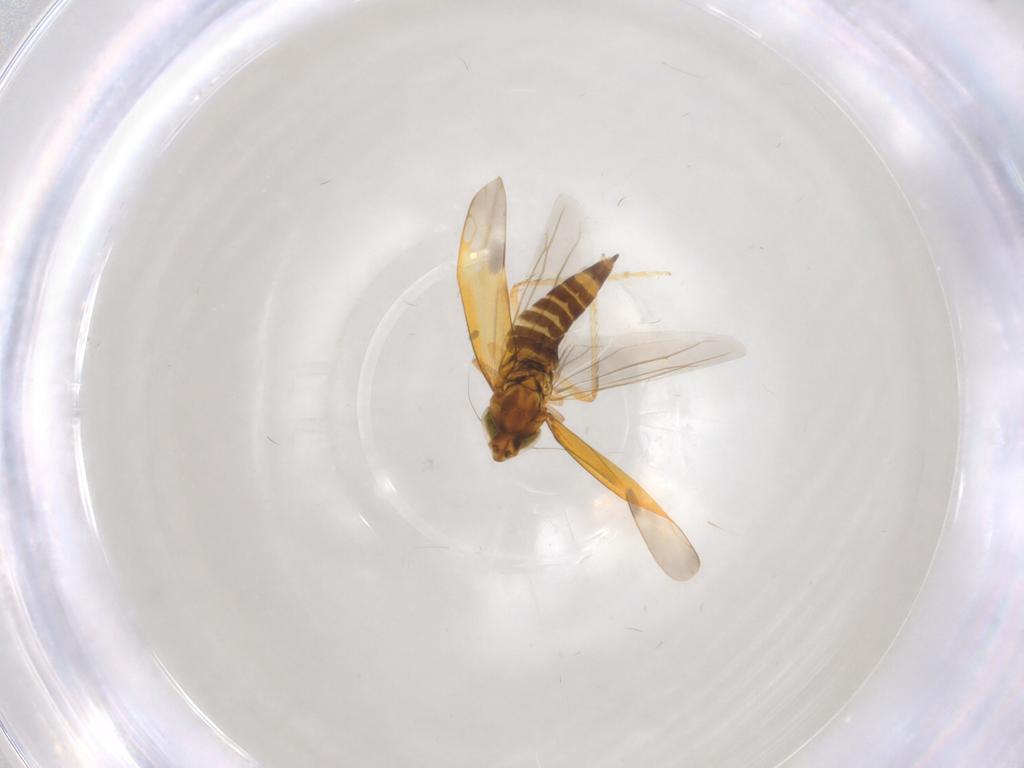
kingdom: Animalia
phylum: Arthropoda
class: Insecta
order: Hemiptera
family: Cicadellidae
